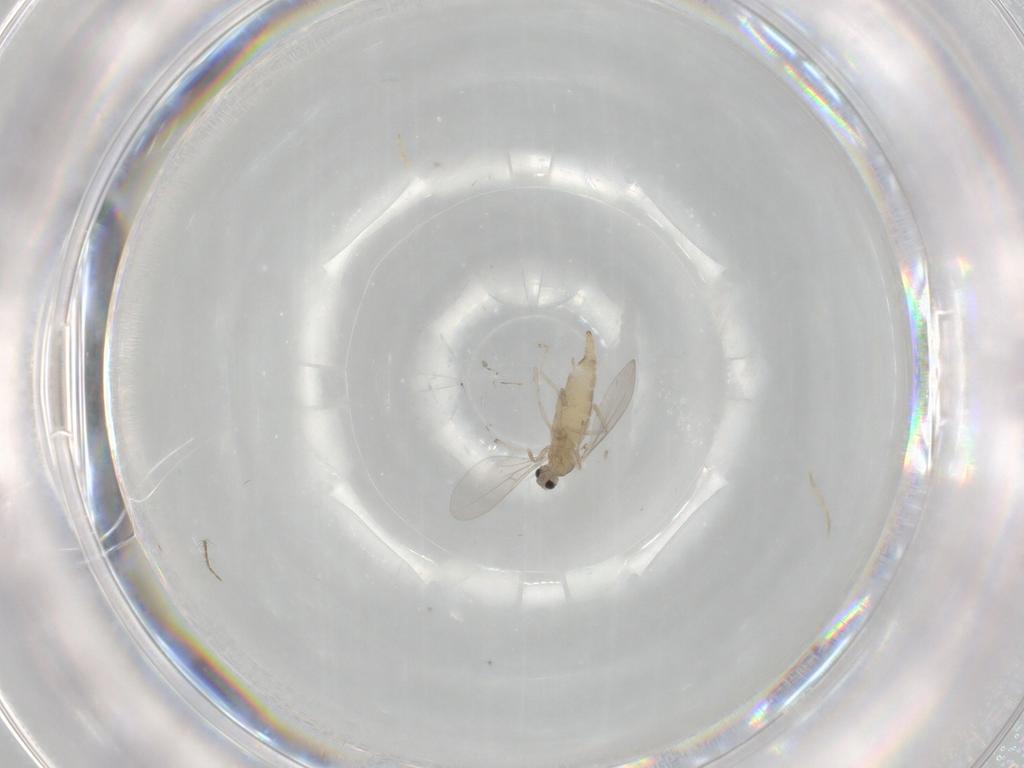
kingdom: Animalia
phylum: Arthropoda
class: Insecta
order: Diptera
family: Cecidomyiidae
